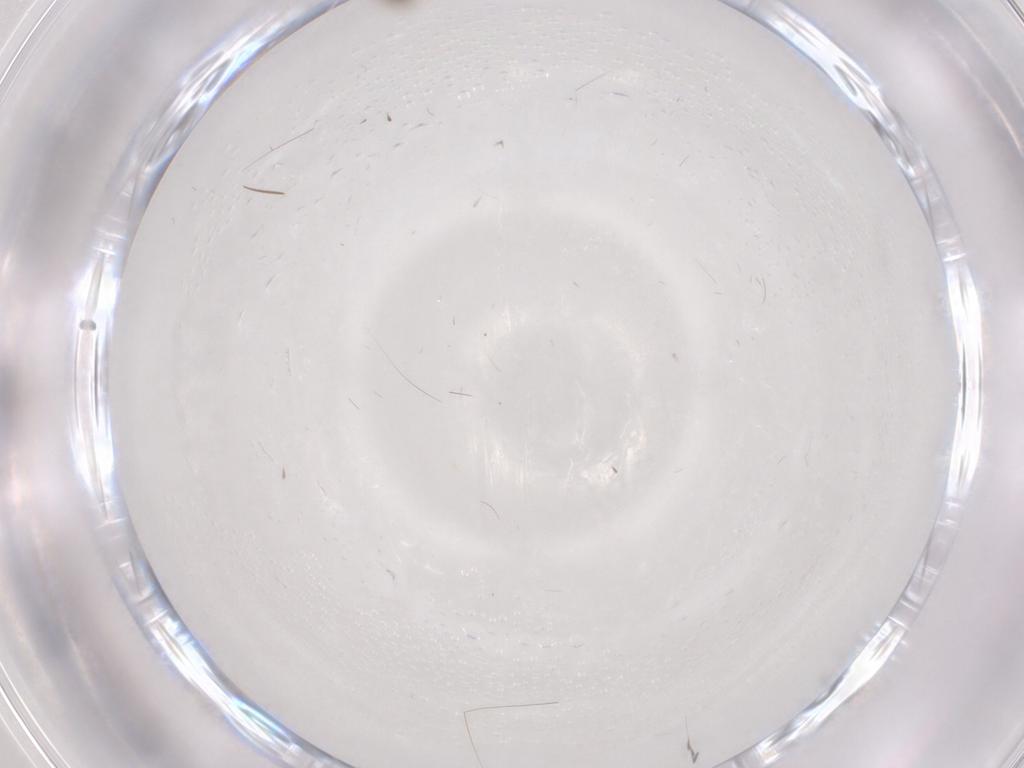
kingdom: Animalia
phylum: Arthropoda
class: Insecta
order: Diptera
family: Cecidomyiidae
